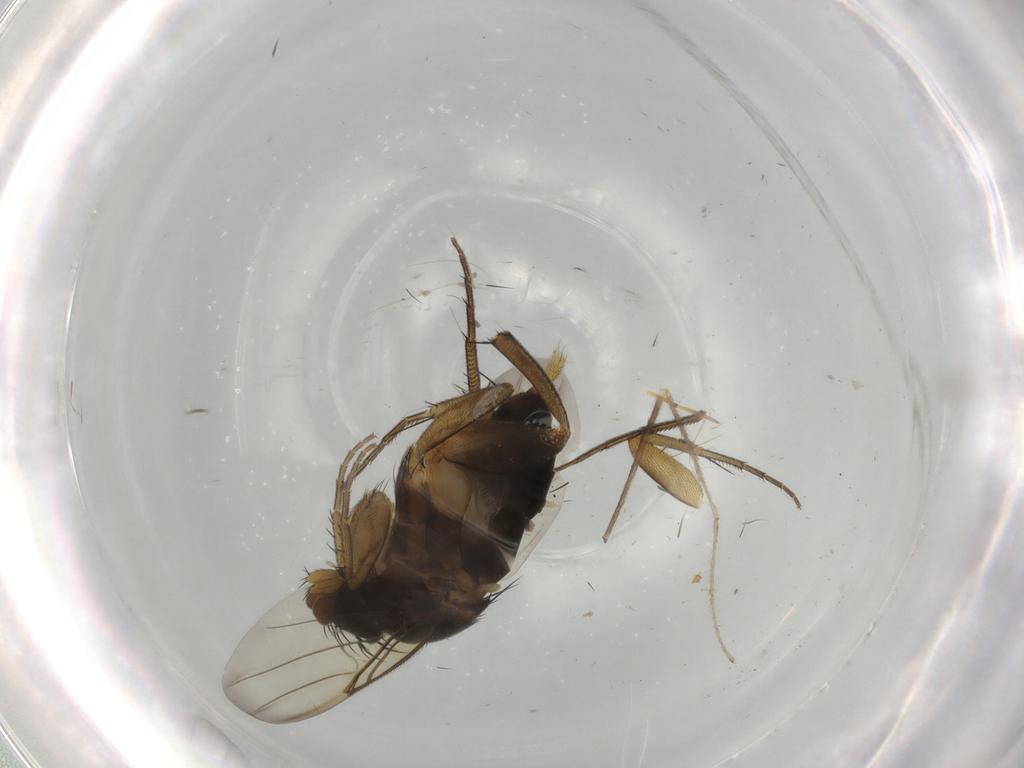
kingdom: Animalia
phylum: Arthropoda
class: Insecta
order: Diptera
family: Phoridae
